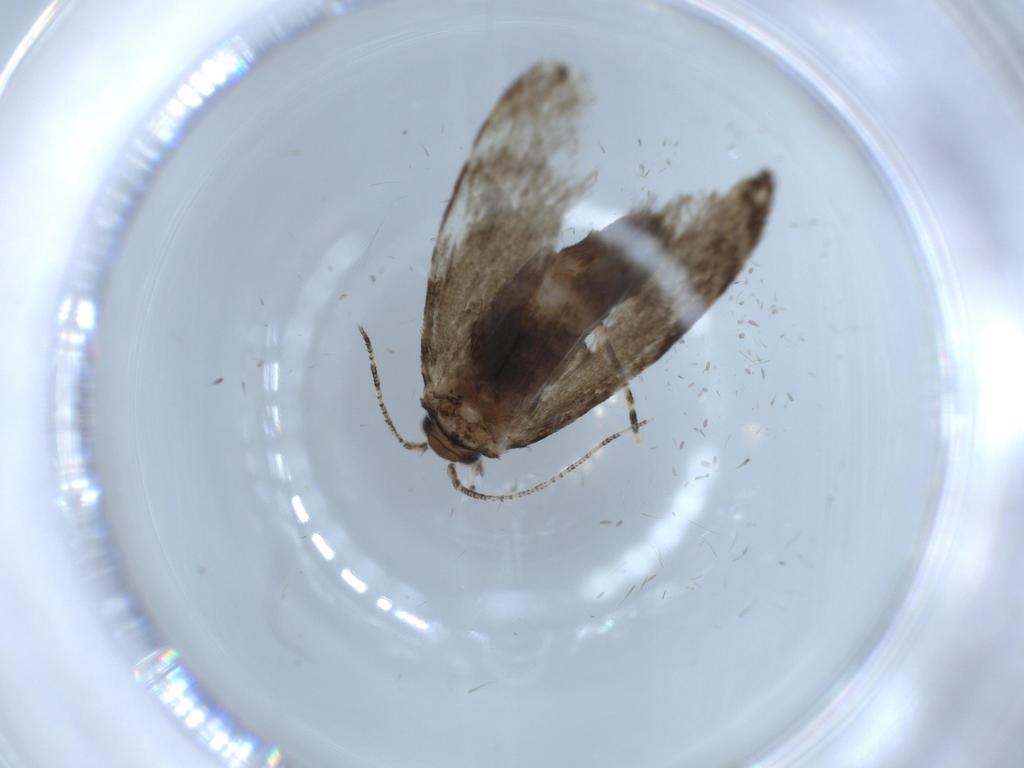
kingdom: Animalia
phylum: Arthropoda
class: Insecta
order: Lepidoptera
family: Tineidae
